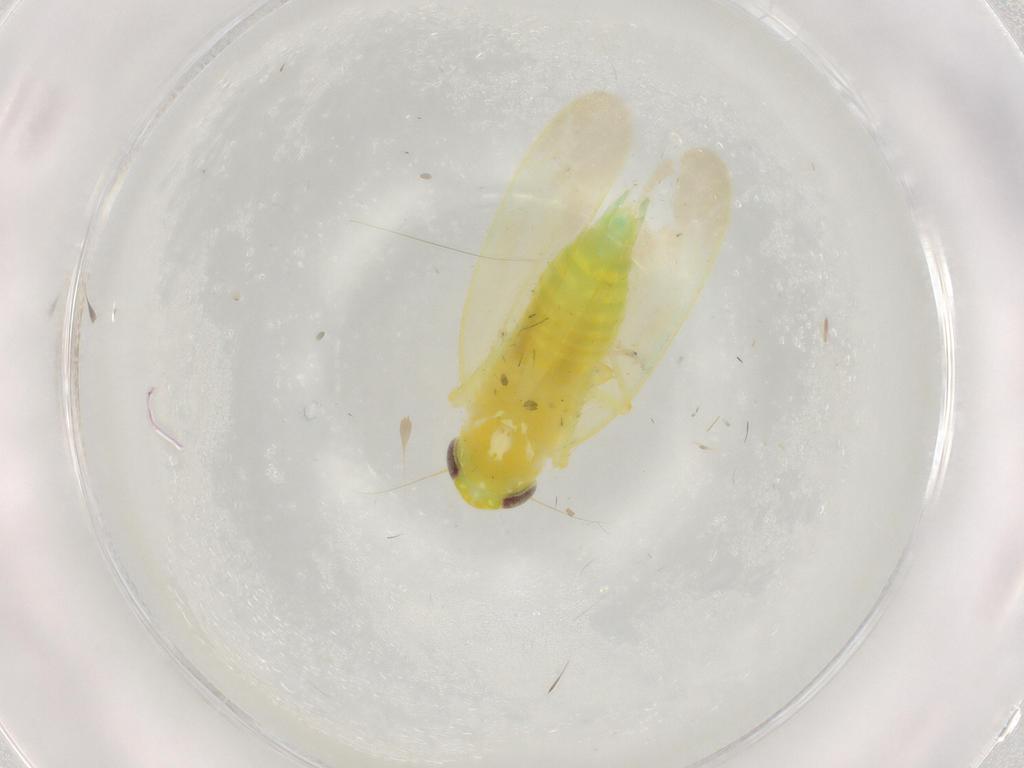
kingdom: Animalia
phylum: Arthropoda
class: Insecta
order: Hemiptera
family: Cicadellidae
